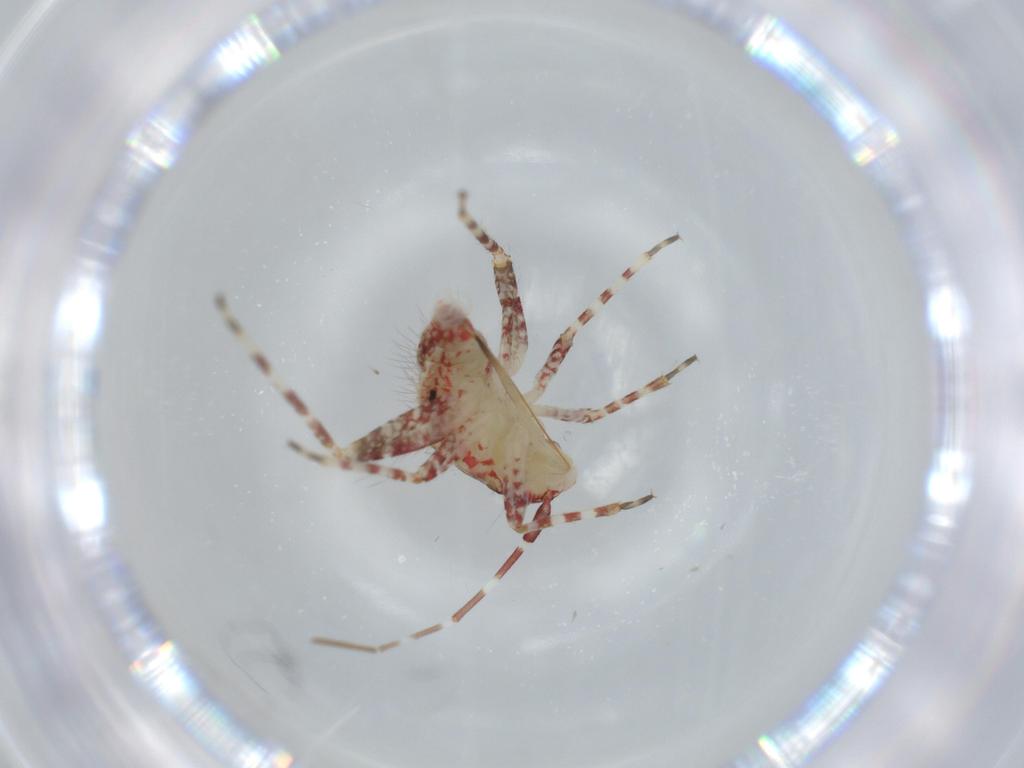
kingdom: Animalia
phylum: Arthropoda
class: Insecta
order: Hemiptera
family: Miridae
